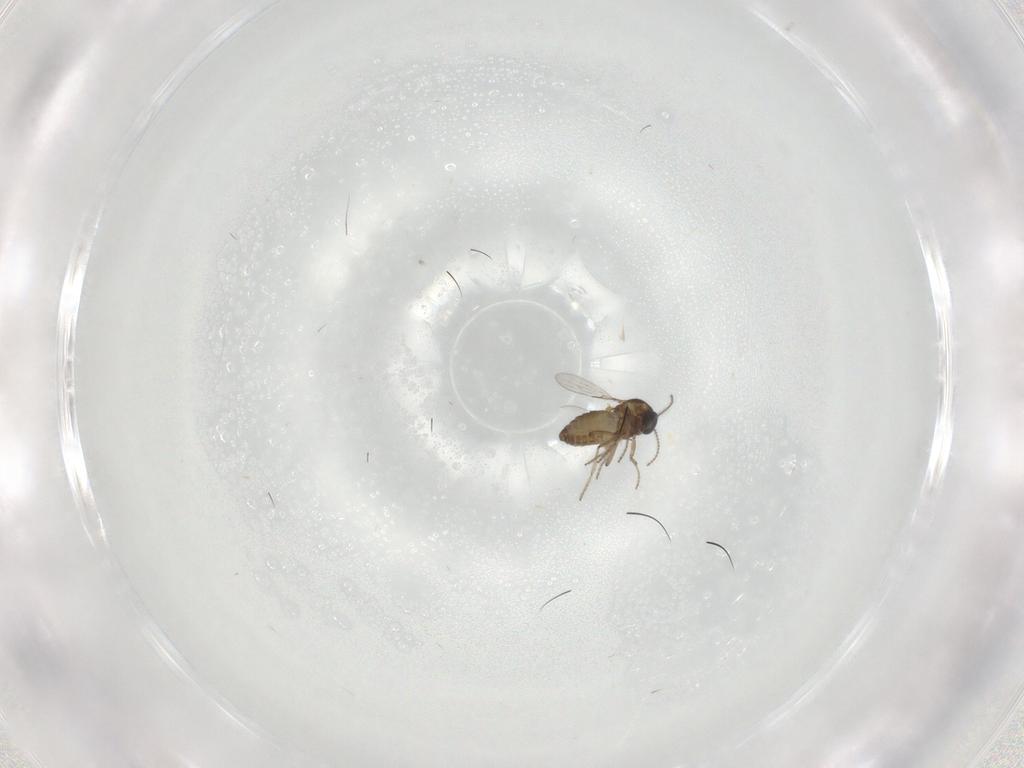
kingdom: Animalia
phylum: Arthropoda
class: Insecta
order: Diptera
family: Ceratopogonidae
